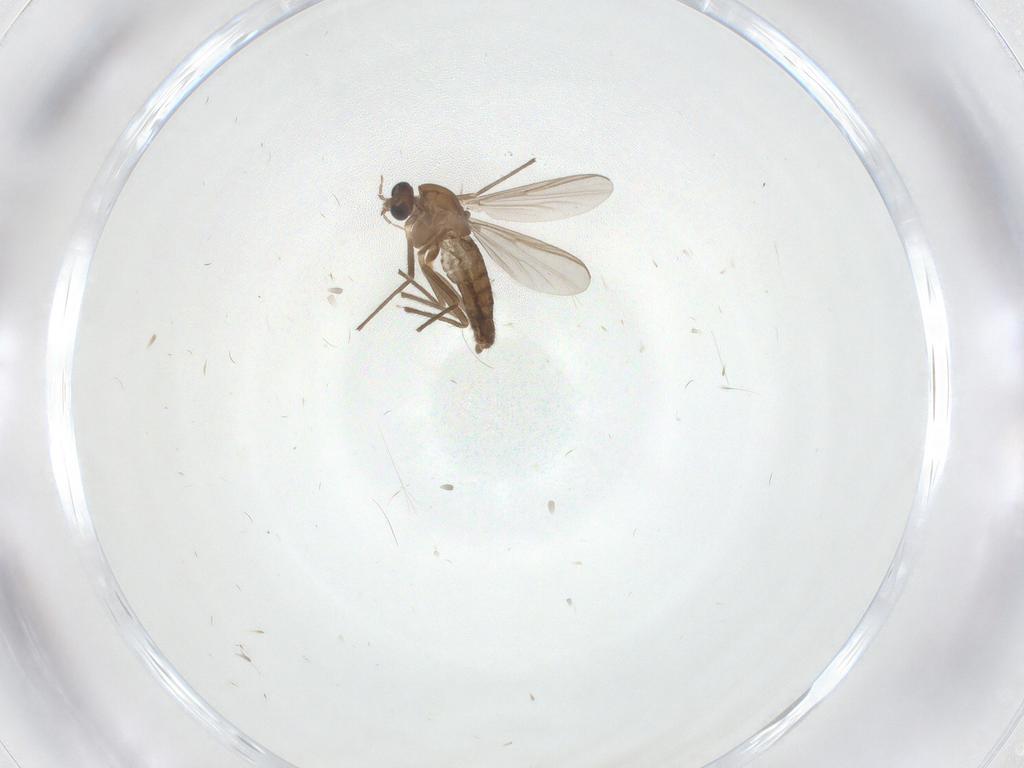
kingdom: Animalia
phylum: Arthropoda
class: Insecta
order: Diptera
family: Cecidomyiidae
